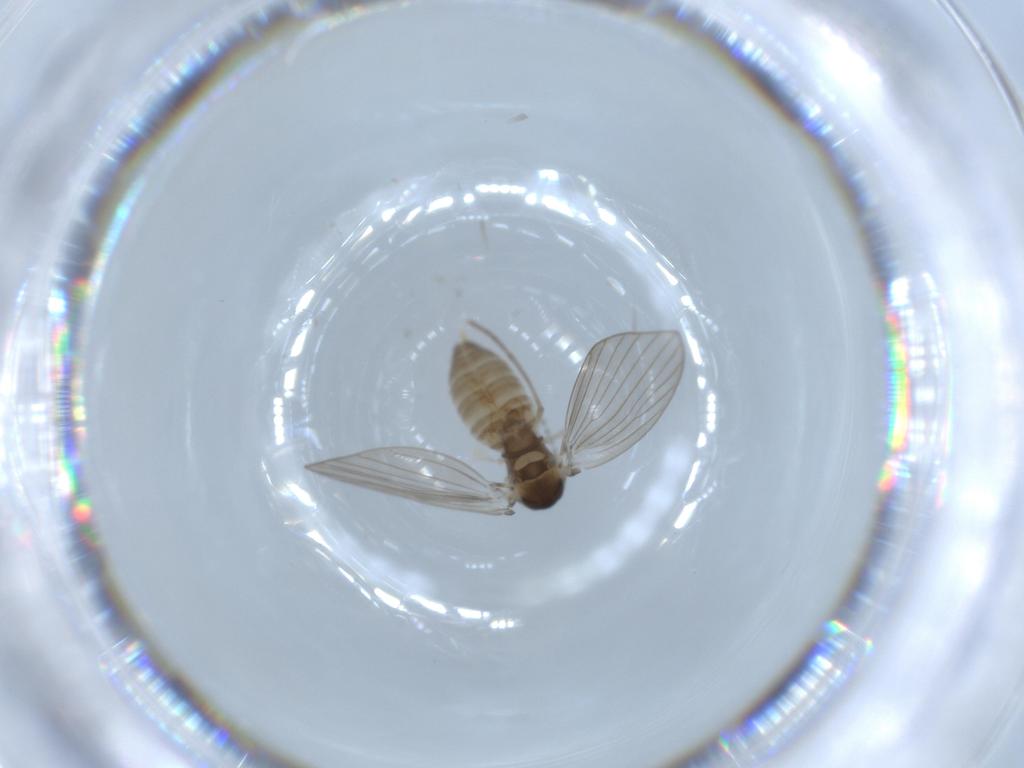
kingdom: Animalia
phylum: Arthropoda
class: Insecta
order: Diptera
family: Psychodidae
